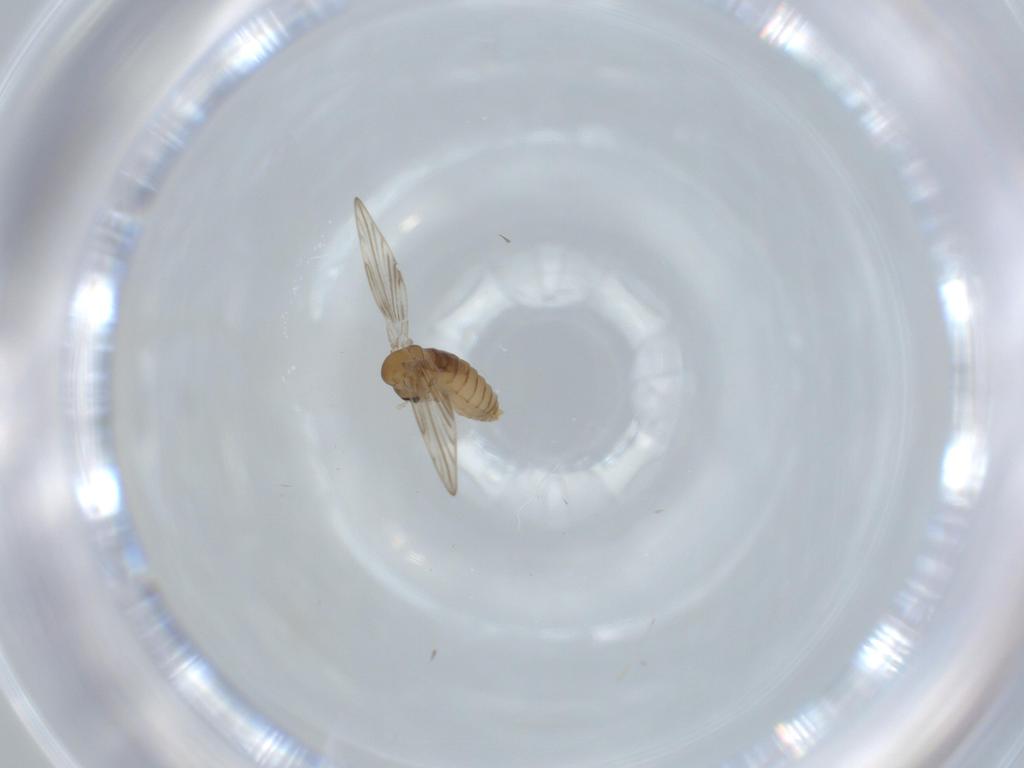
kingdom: Animalia
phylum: Arthropoda
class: Insecta
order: Diptera
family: Psychodidae
